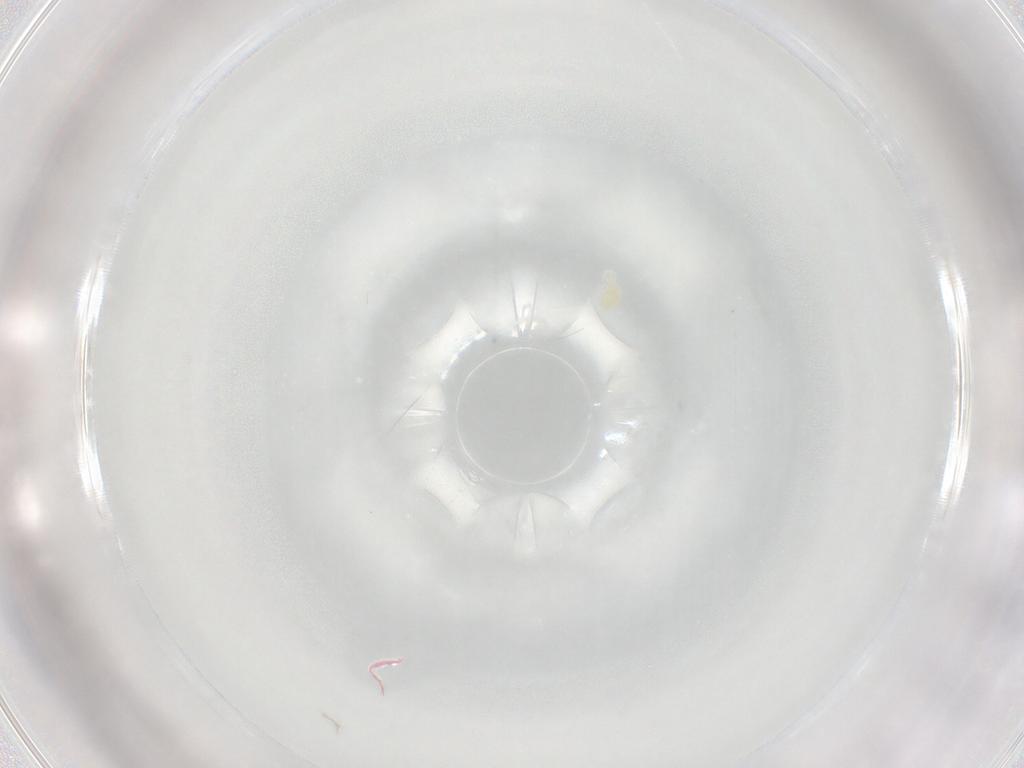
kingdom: Animalia
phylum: Arthropoda
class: Arachnida
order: Trombidiformes
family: Eupodidae
